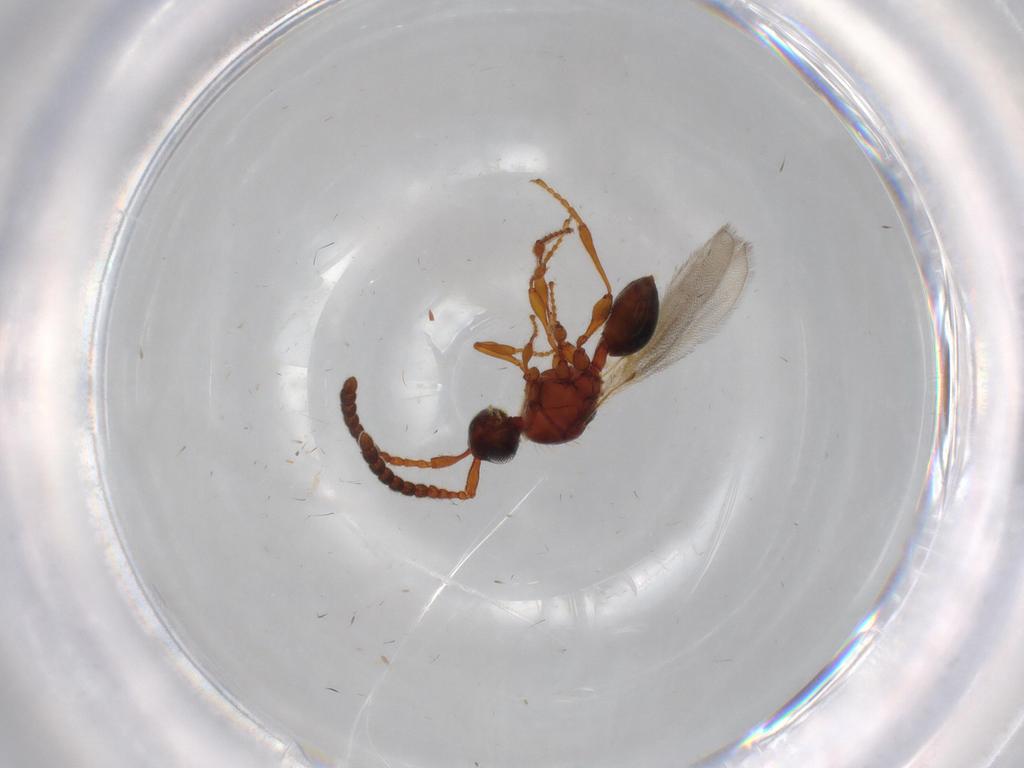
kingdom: Animalia
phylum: Arthropoda
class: Insecta
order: Hymenoptera
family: Diapriidae
